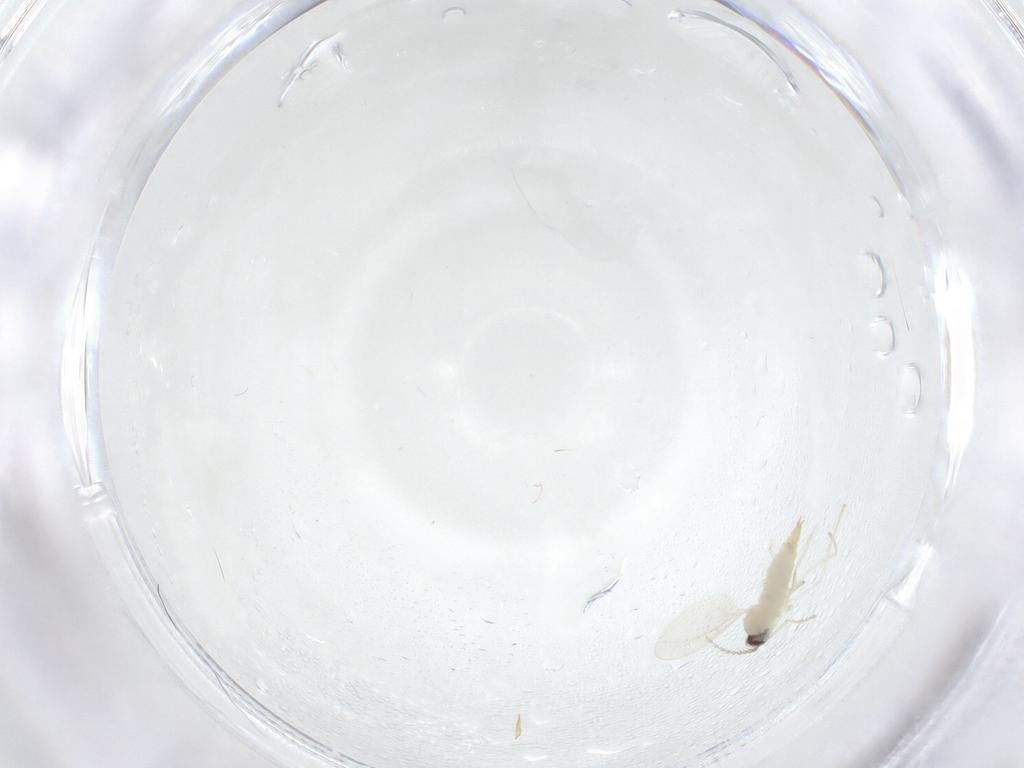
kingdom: Animalia
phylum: Arthropoda
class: Insecta
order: Diptera
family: Cecidomyiidae
